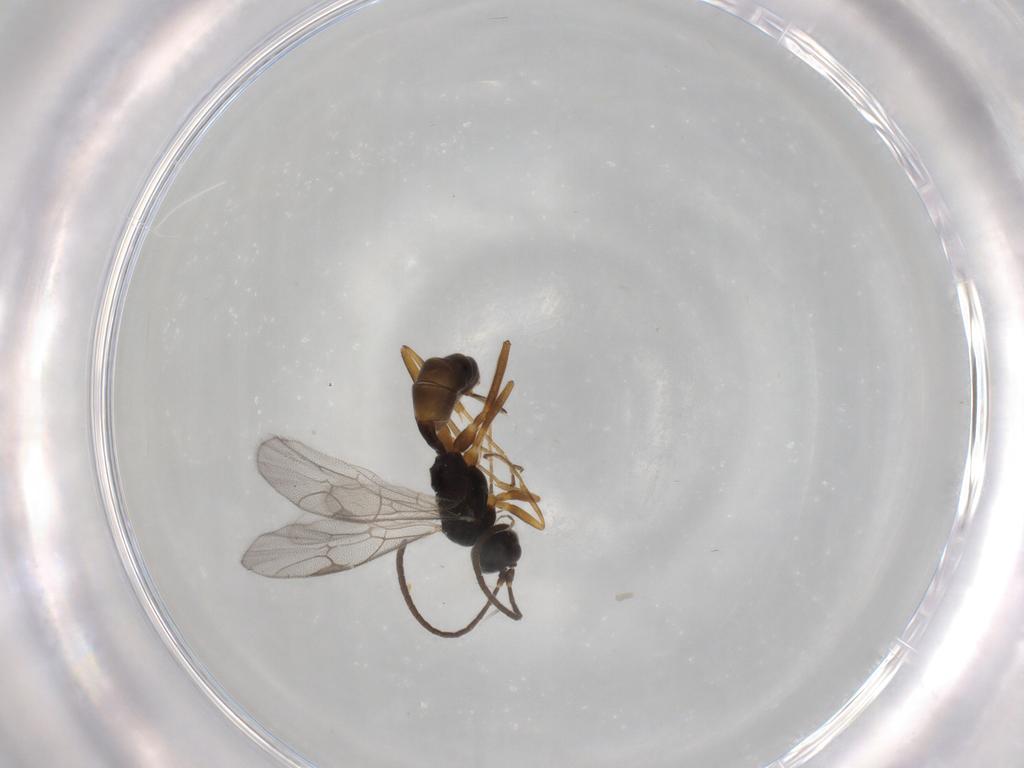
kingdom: Animalia
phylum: Arthropoda
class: Insecta
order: Hymenoptera
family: Ichneumonidae
